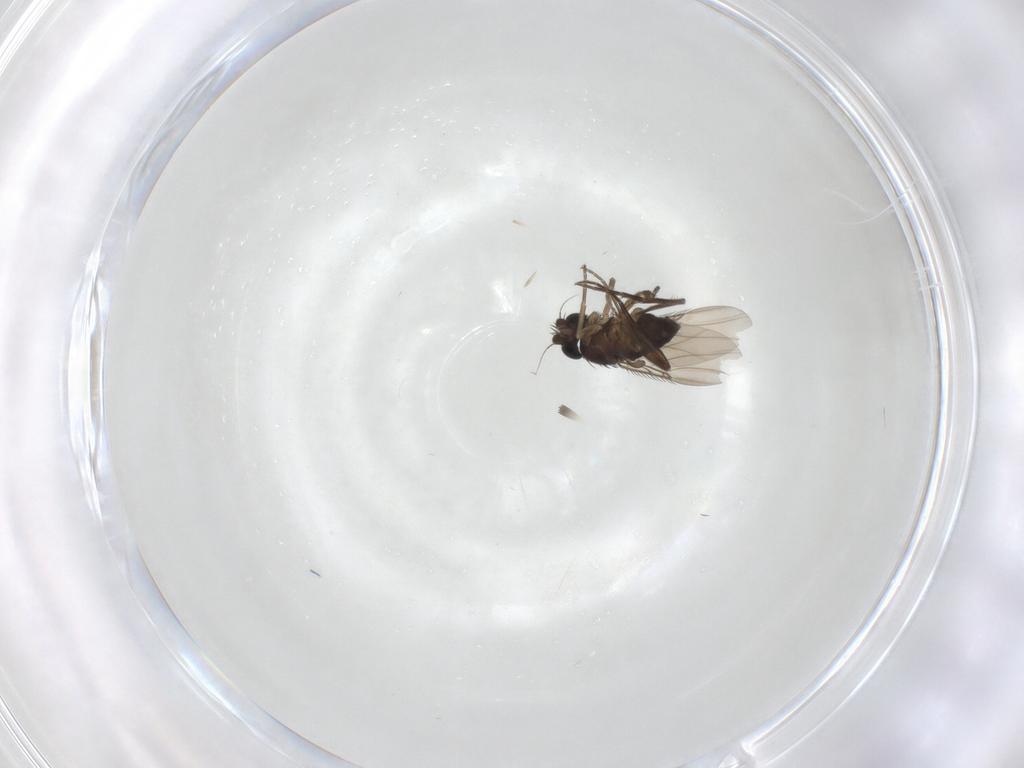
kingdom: Animalia
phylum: Arthropoda
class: Insecta
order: Diptera
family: Phoridae
